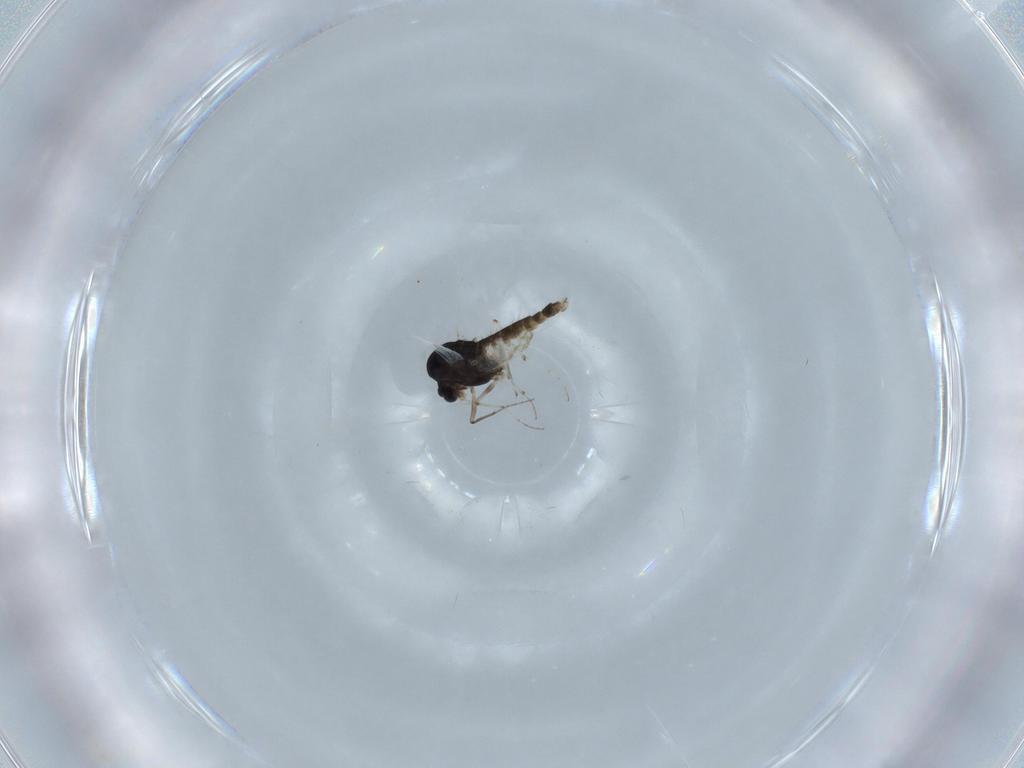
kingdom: Animalia
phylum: Arthropoda
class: Insecta
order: Diptera
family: Chironomidae
